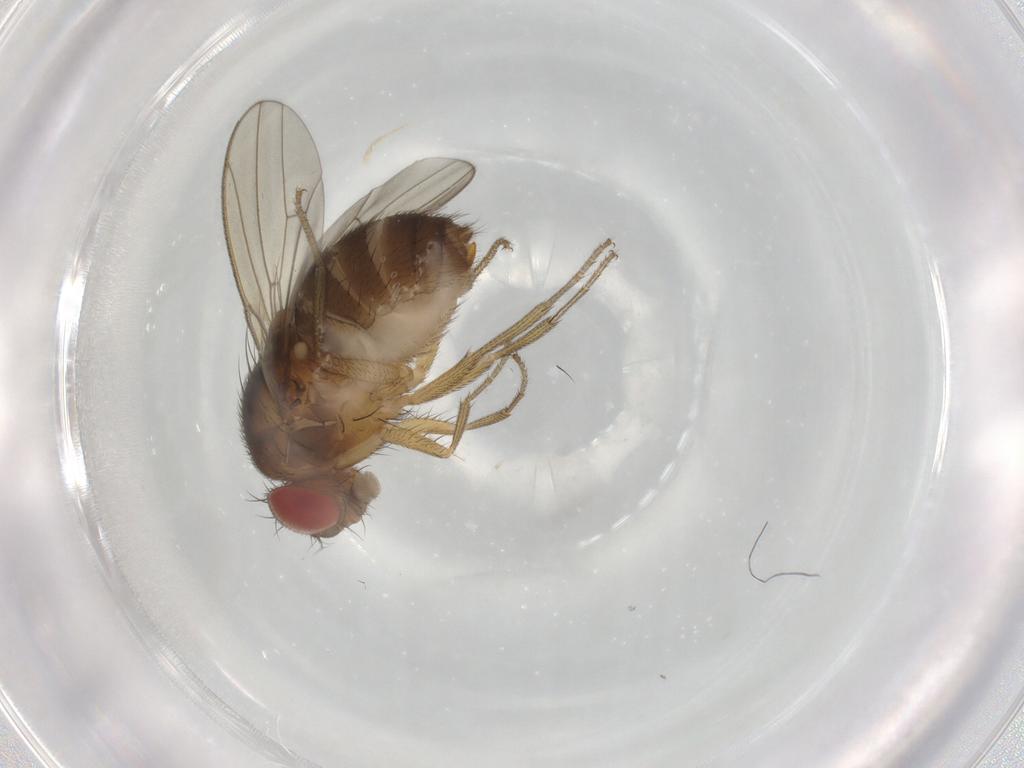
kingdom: Animalia
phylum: Arthropoda
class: Insecta
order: Diptera
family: Drosophilidae
